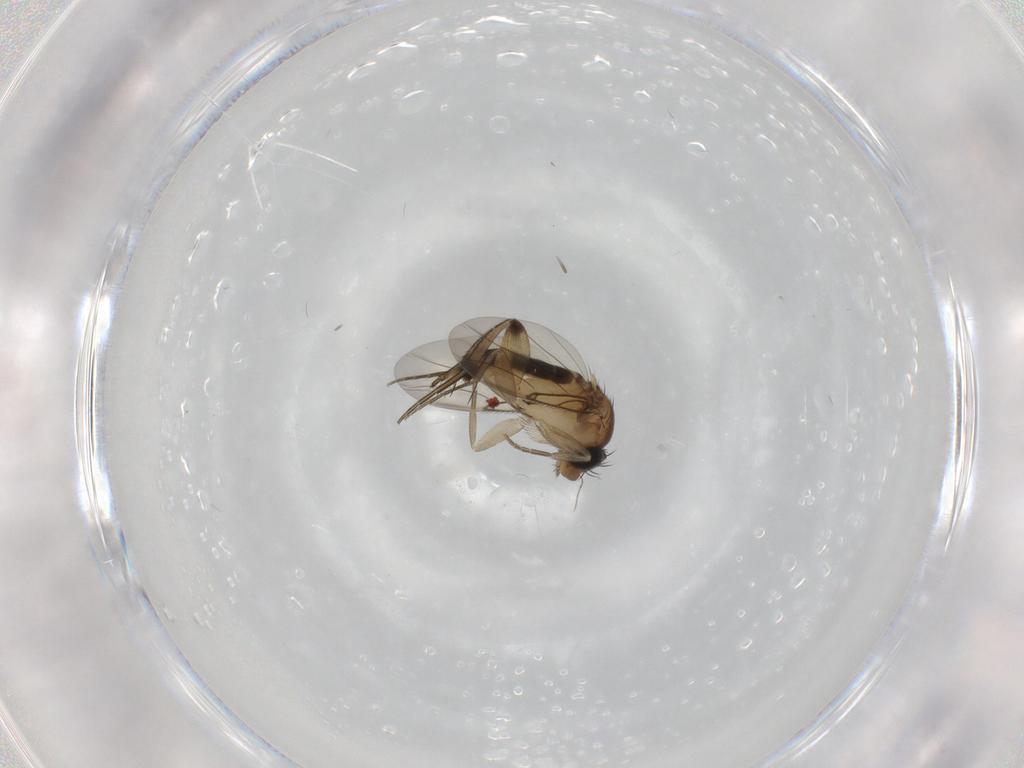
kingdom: Animalia
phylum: Arthropoda
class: Insecta
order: Diptera
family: Phoridae
